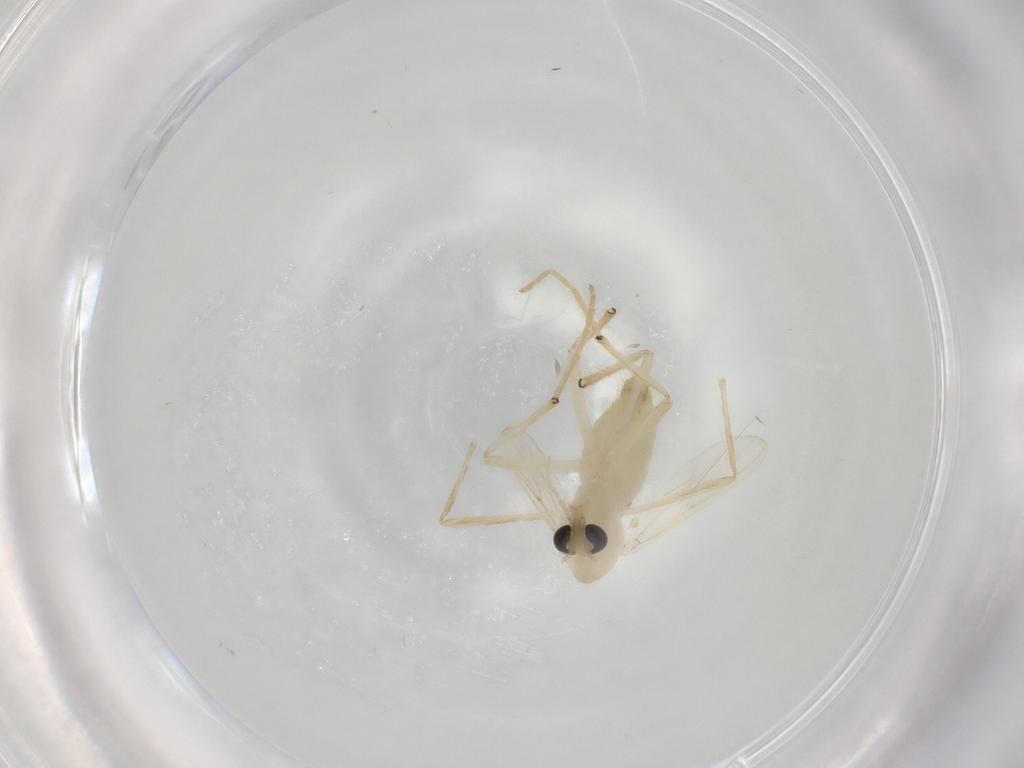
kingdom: Animalia
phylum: Arthropoda
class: Insecta
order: Diptera
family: Chironomidae
